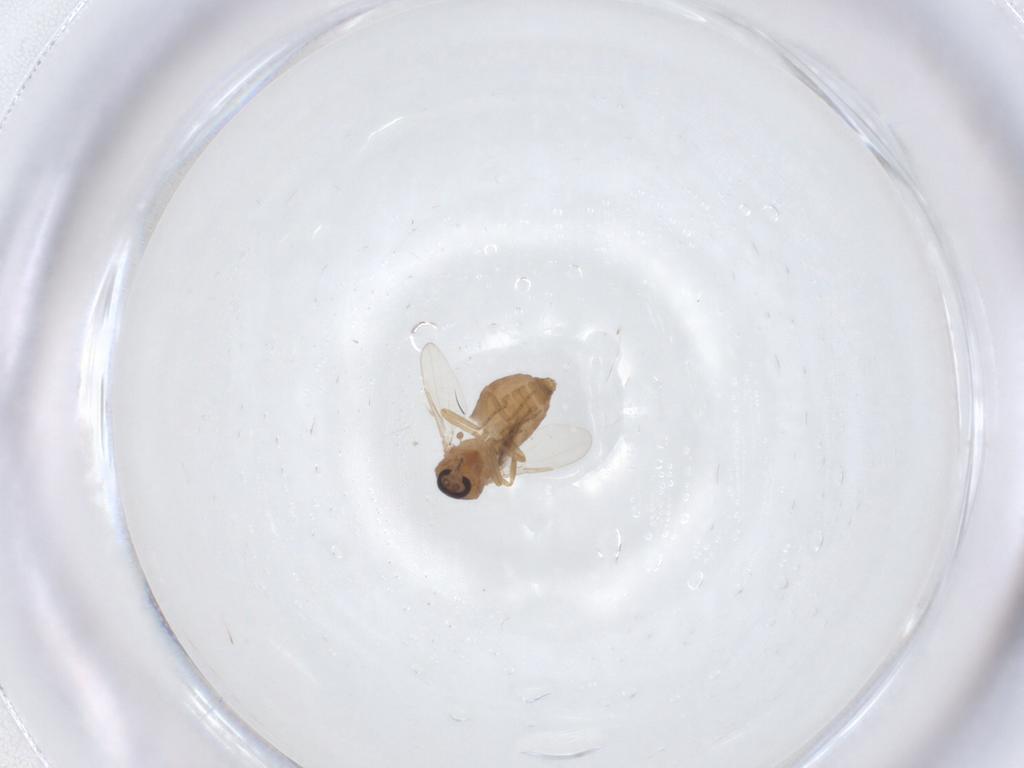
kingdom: Animalia
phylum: Arthropoda
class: Insecta
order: Diptera
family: Ceratopogonidae
